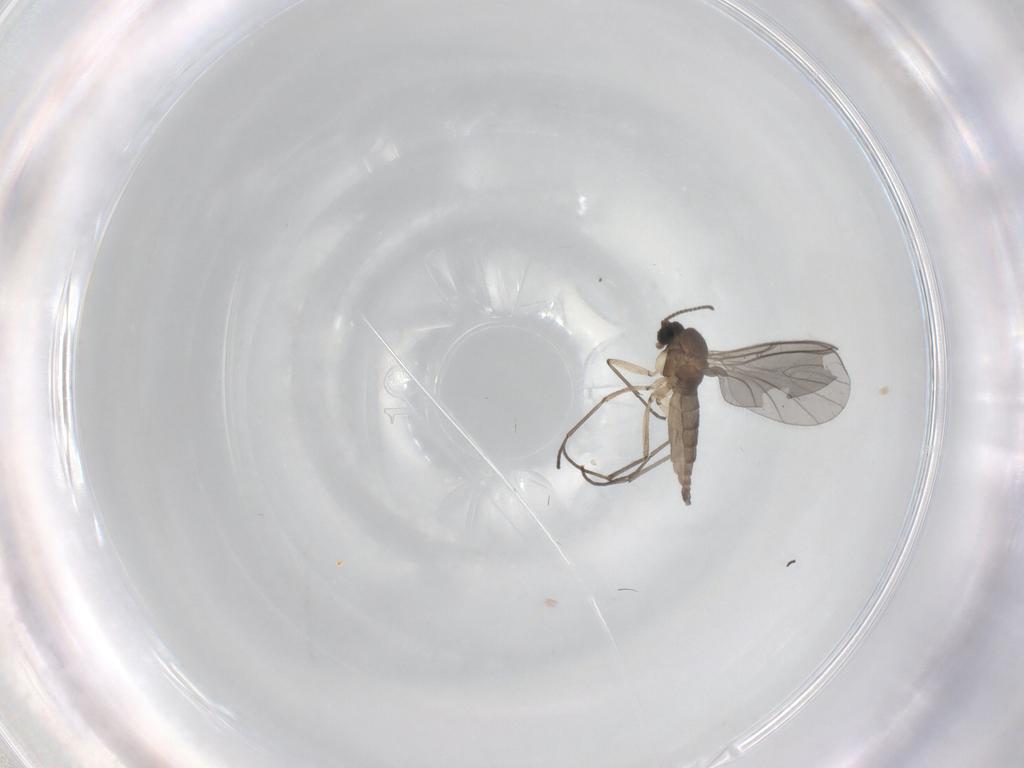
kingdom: Animalia
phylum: Arthropoda
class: Insecta
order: Diptera
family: Sciaridae
